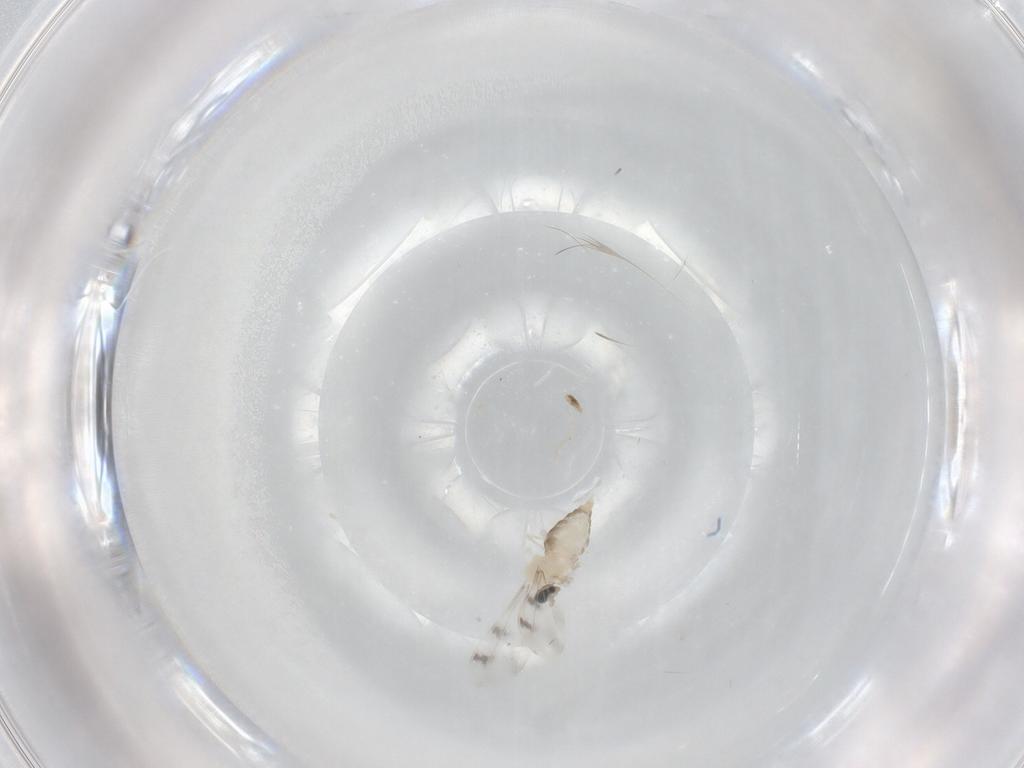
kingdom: Animalia
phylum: Arthropoda
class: Insecta
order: Diptera
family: Cecidomyiidae
